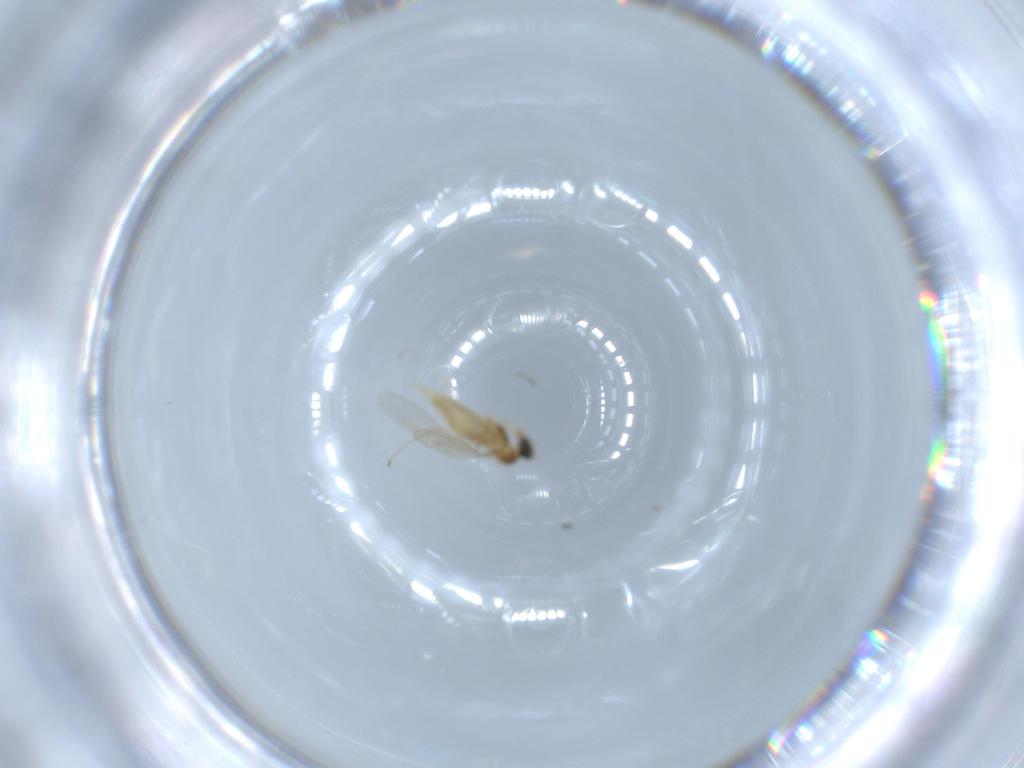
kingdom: Animalia
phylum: Arthropoda
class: Insecta
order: Diptera
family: Cecidomyiidae
